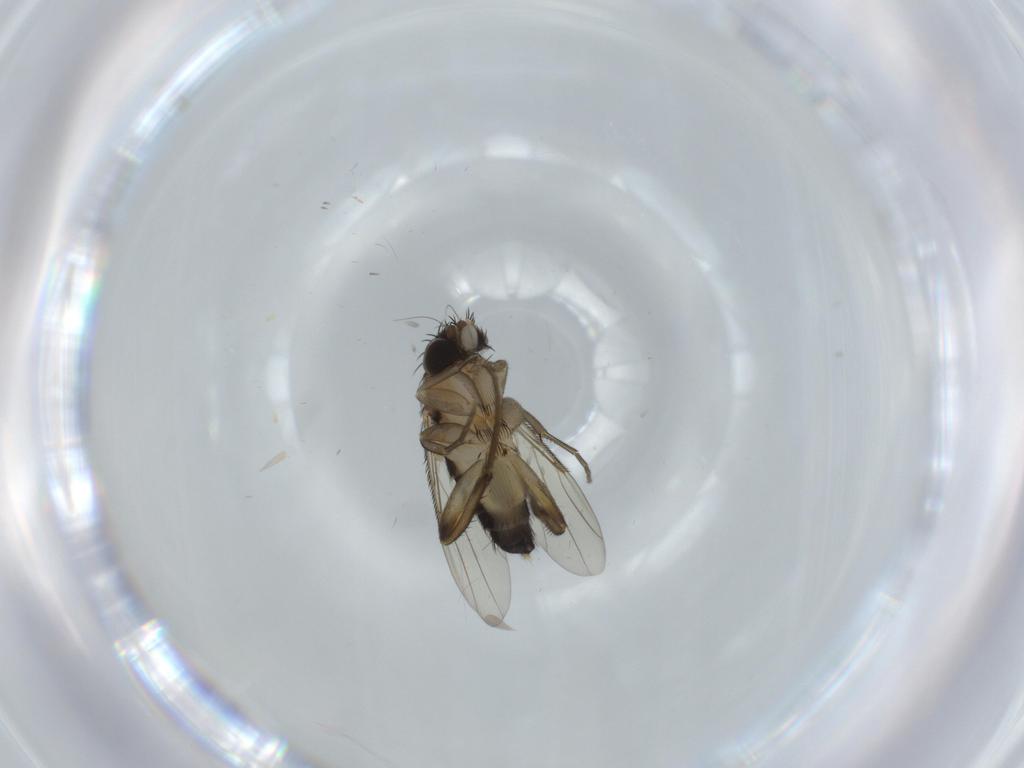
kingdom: Animalia
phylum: Arthropoda
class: Insecta
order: Diptera
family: Phoridae
